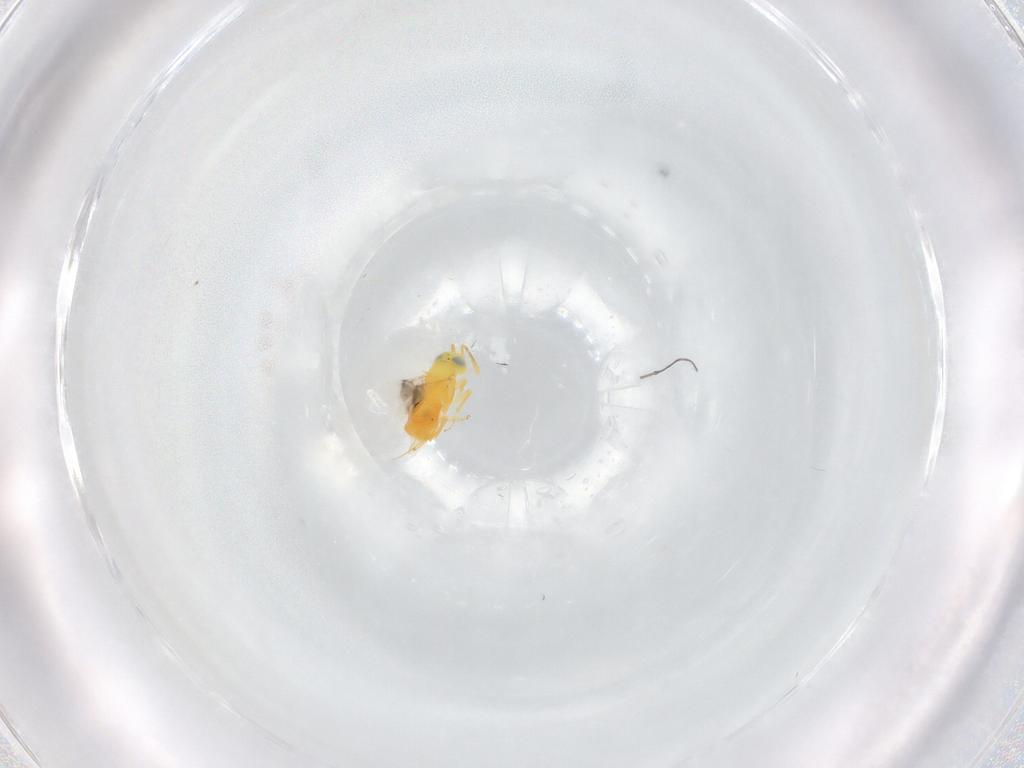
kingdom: Animalia
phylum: Arthropoda
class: Insecta
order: Hymenoptera
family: Encyrtidae
